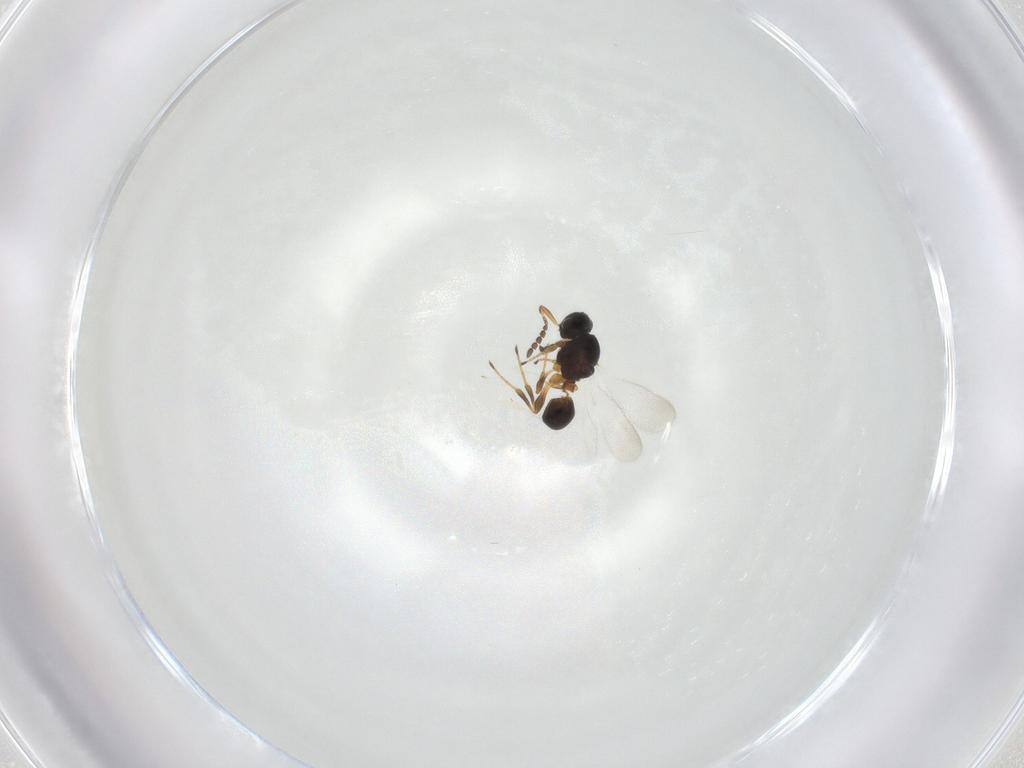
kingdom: Animalia
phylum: Arthropoda
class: Insecta
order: Hymenoptera
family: Platygastridae
